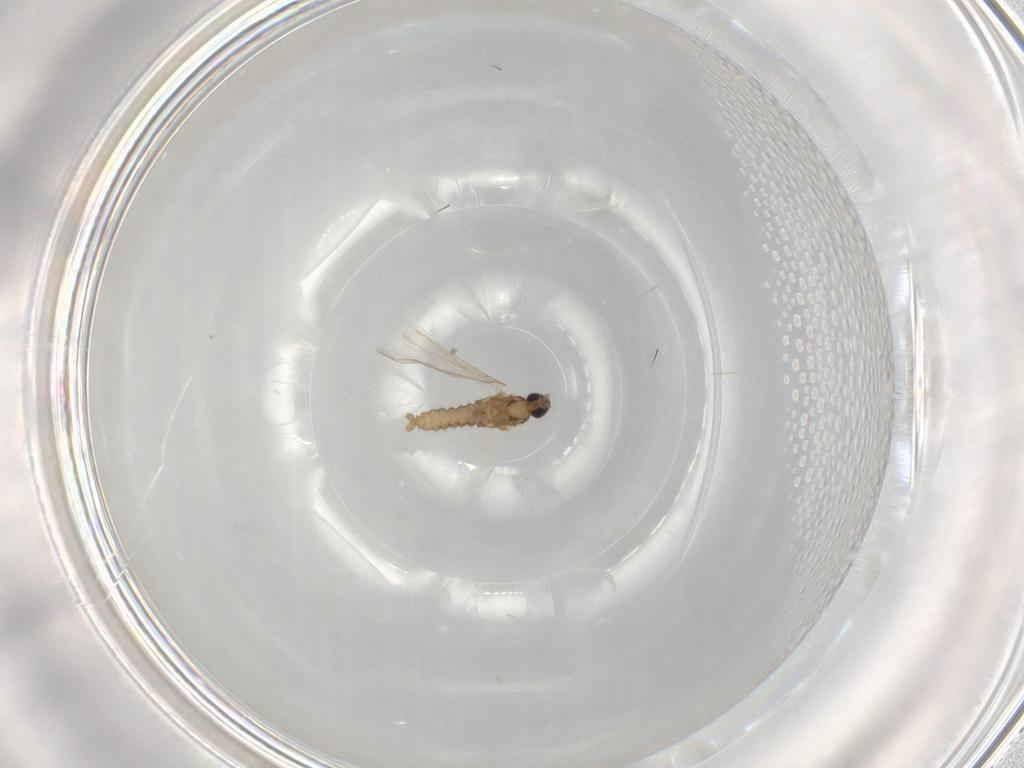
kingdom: Animalia
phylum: Arthropoda
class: Insecta
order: Diptera
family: Cecidomyiidae
